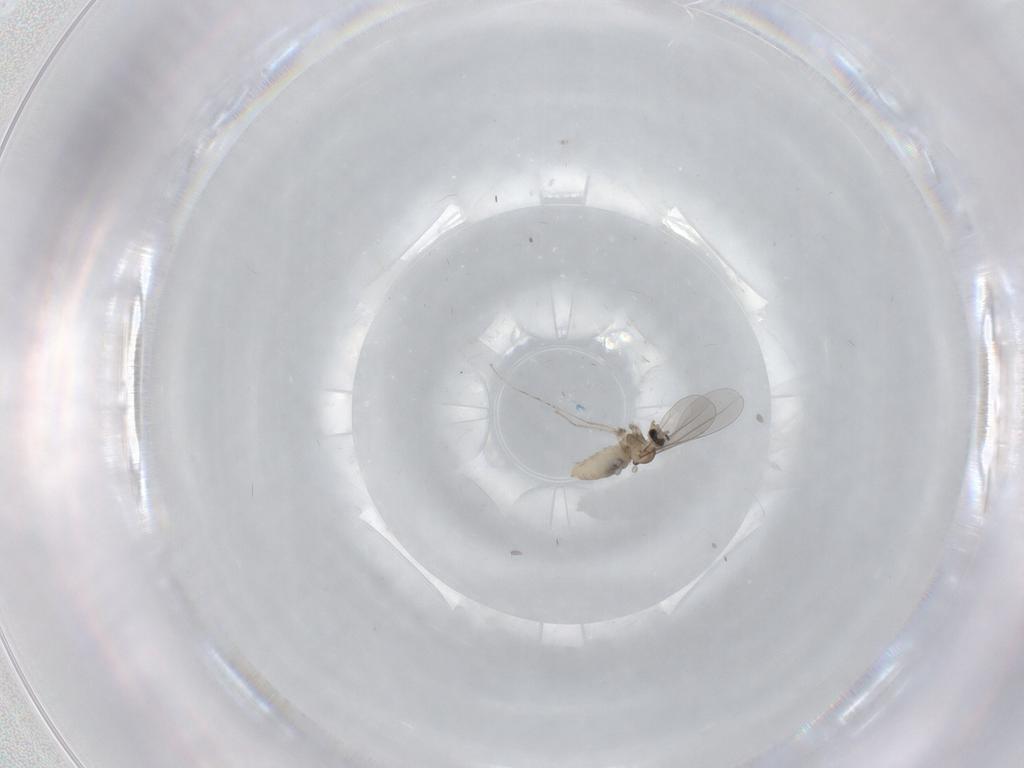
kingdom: Animalia
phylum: Arthropoda
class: Insecta
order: Diptera
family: Cecidomyiidae
